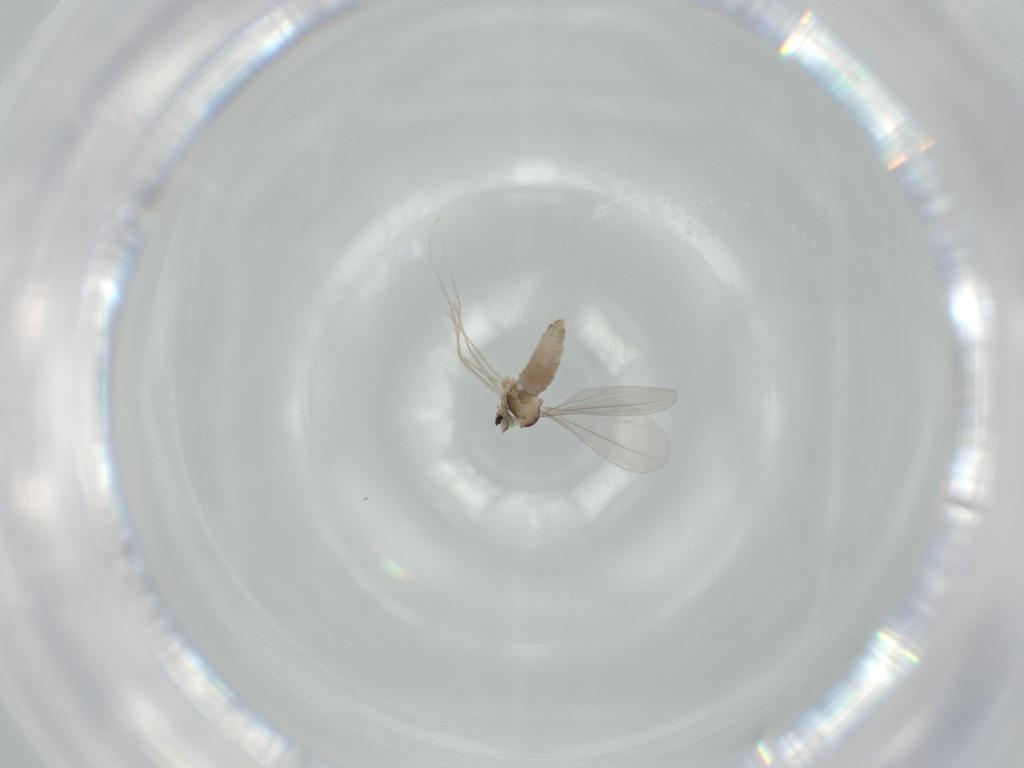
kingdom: Animalia
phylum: Arthropoda
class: Insecta
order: Diptera
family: Cecidomyiidae
